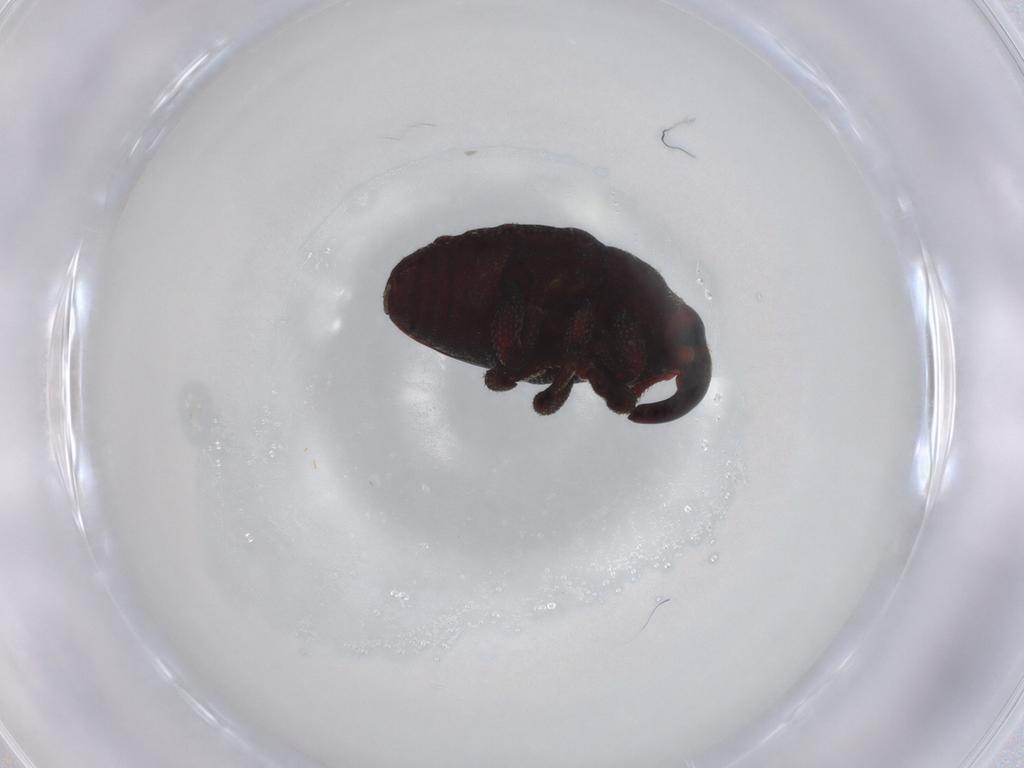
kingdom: Animalia
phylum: Arthropoda
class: Insecta
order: Coleoptera
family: Curculionidae
